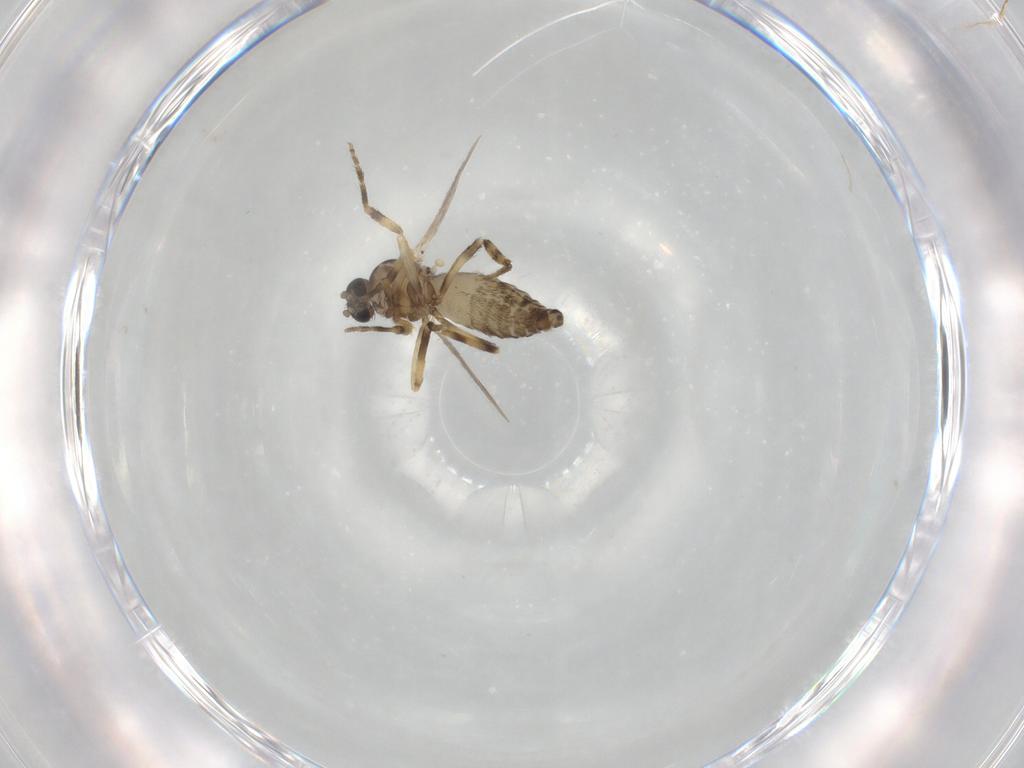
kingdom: Animalia
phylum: Arthropoda
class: Insecta
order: Diptera
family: Ceratopogonidae
